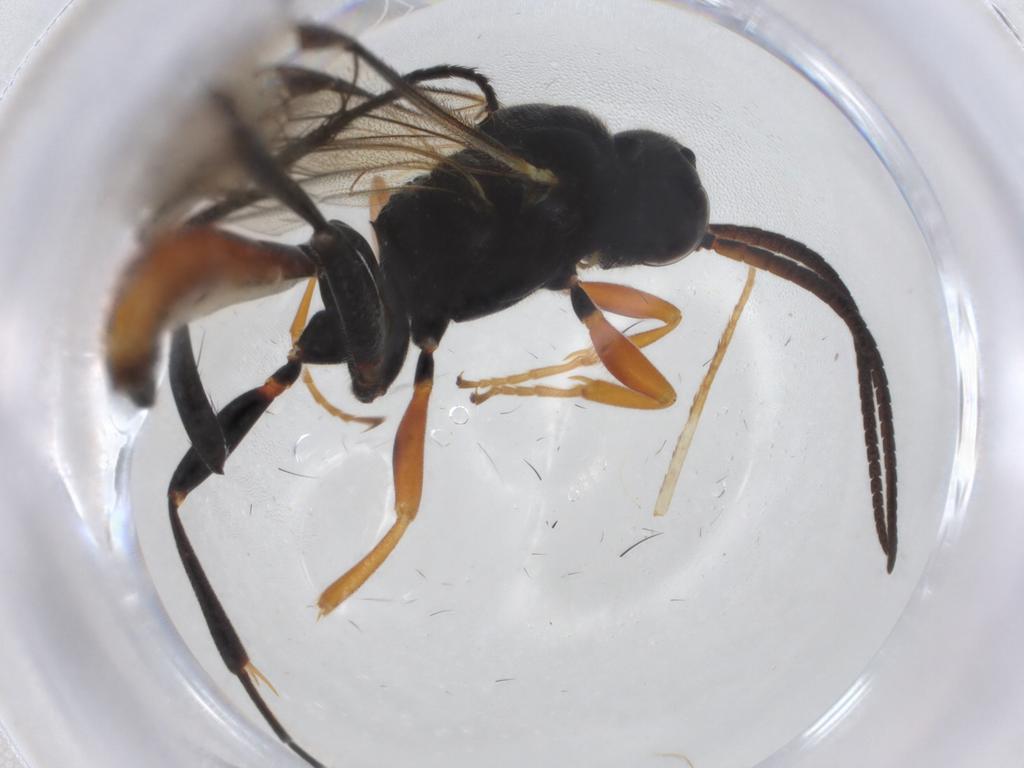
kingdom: Animalia
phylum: Arthropoda
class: Insecta
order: Hymenoptera
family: Ichneumonidae
